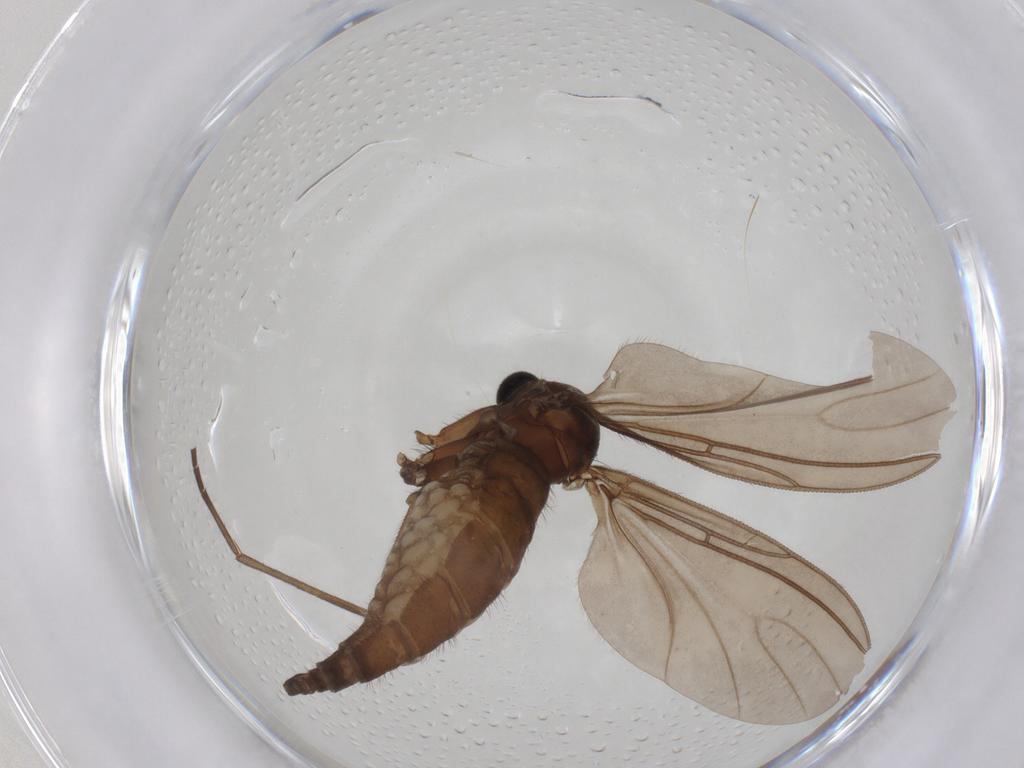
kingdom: Animalia
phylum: Arthropoda
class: Insecta
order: Diptera
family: Sciaridae
